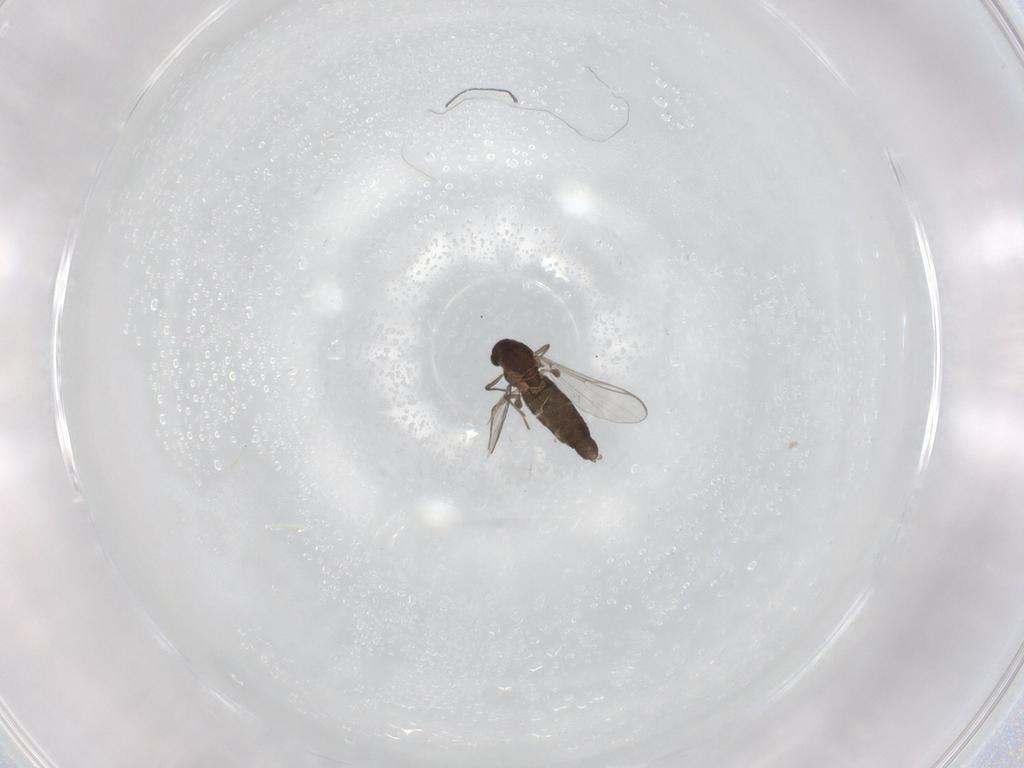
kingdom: Animalia
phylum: Arthropoda
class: Insecta
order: Diptera
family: Chironomidae
